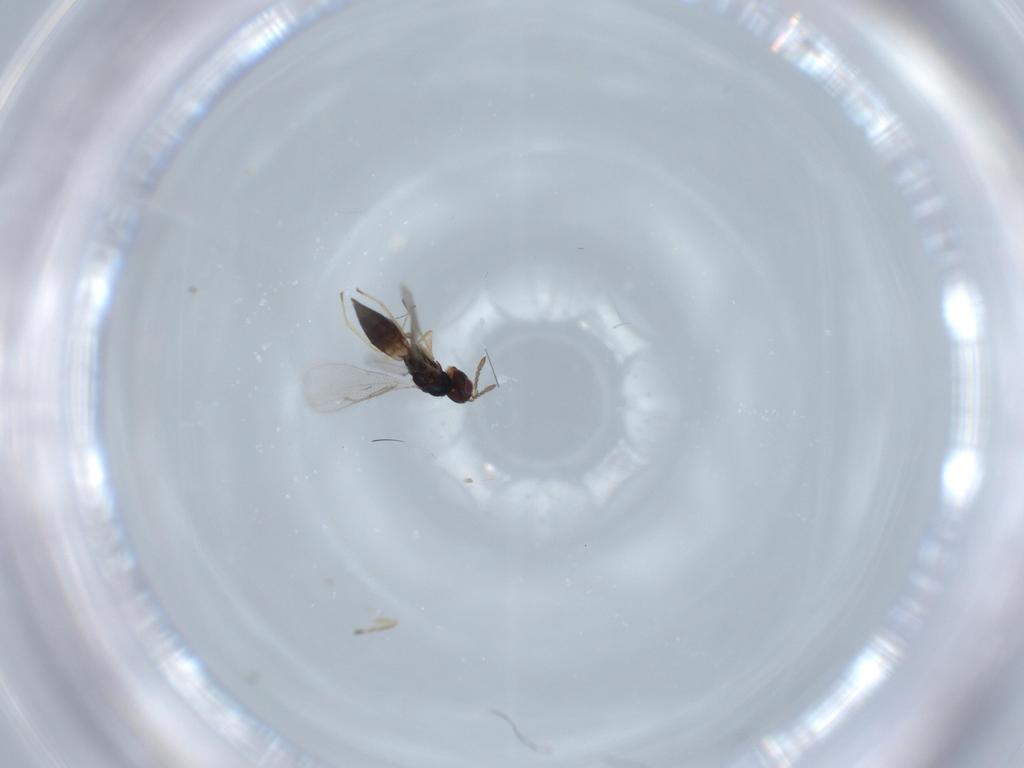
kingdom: Animalia
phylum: Arthropoda
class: Insecta
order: Hymenoptera
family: Eulophidae
